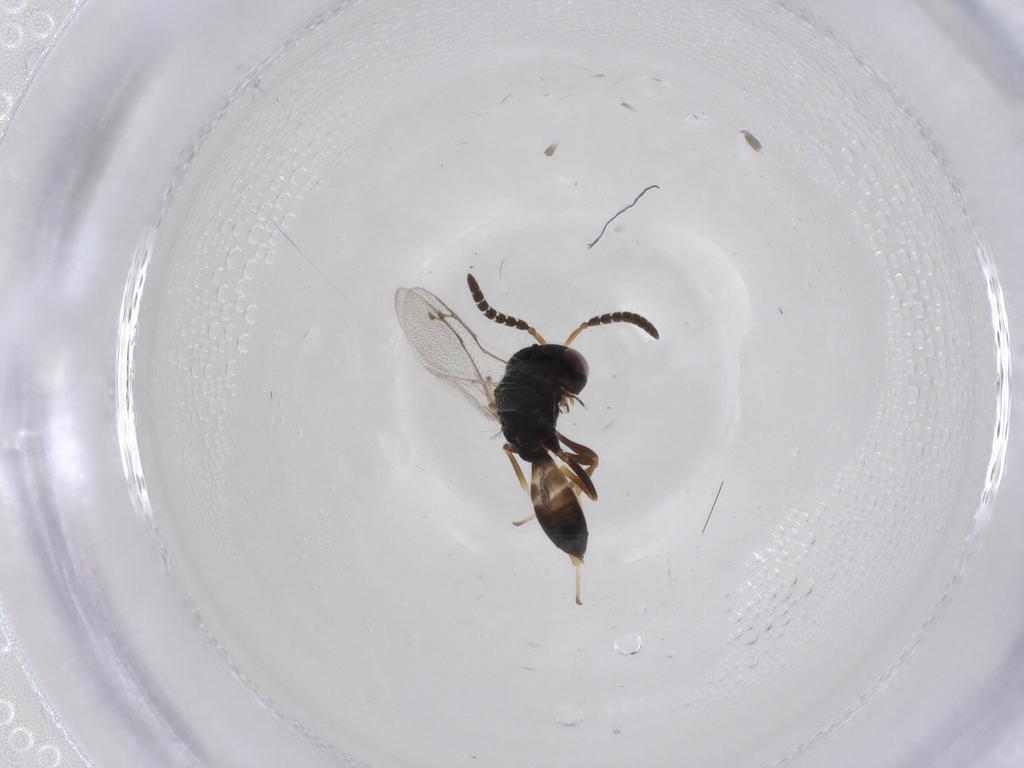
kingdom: Animalia
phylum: Arthropoda
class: Insecta
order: Hymenoptera
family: Pteromalidae
